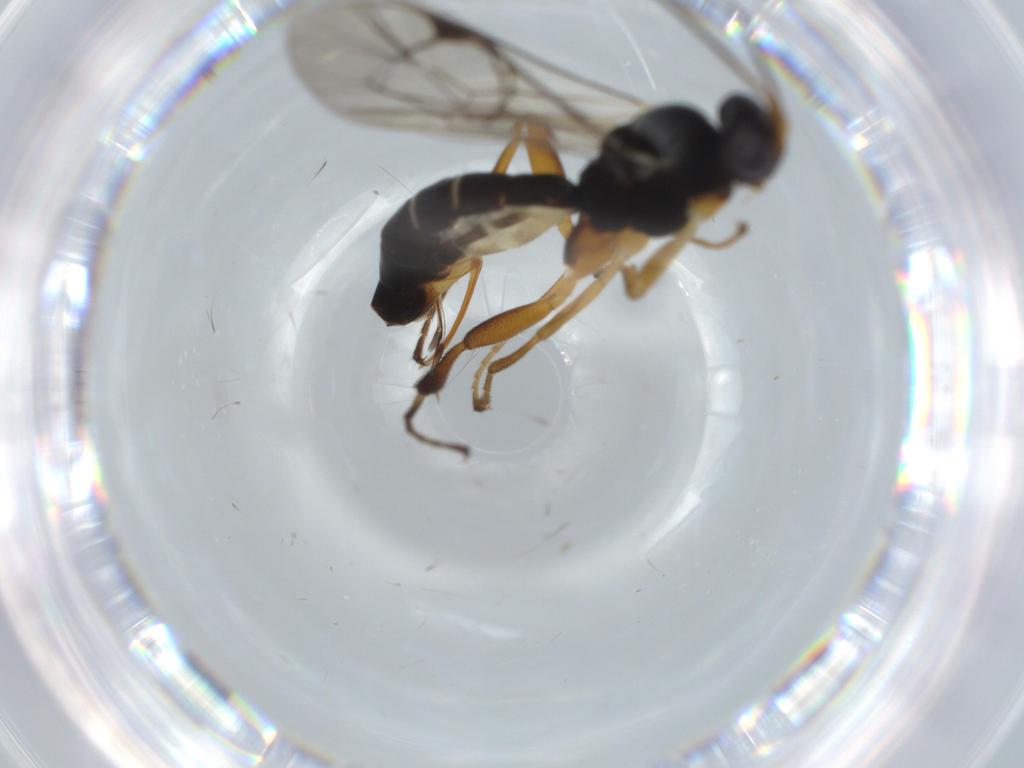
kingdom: Animalia
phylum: Arthropoda
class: Insecta
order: Hymenoptera
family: Signiphoridae
